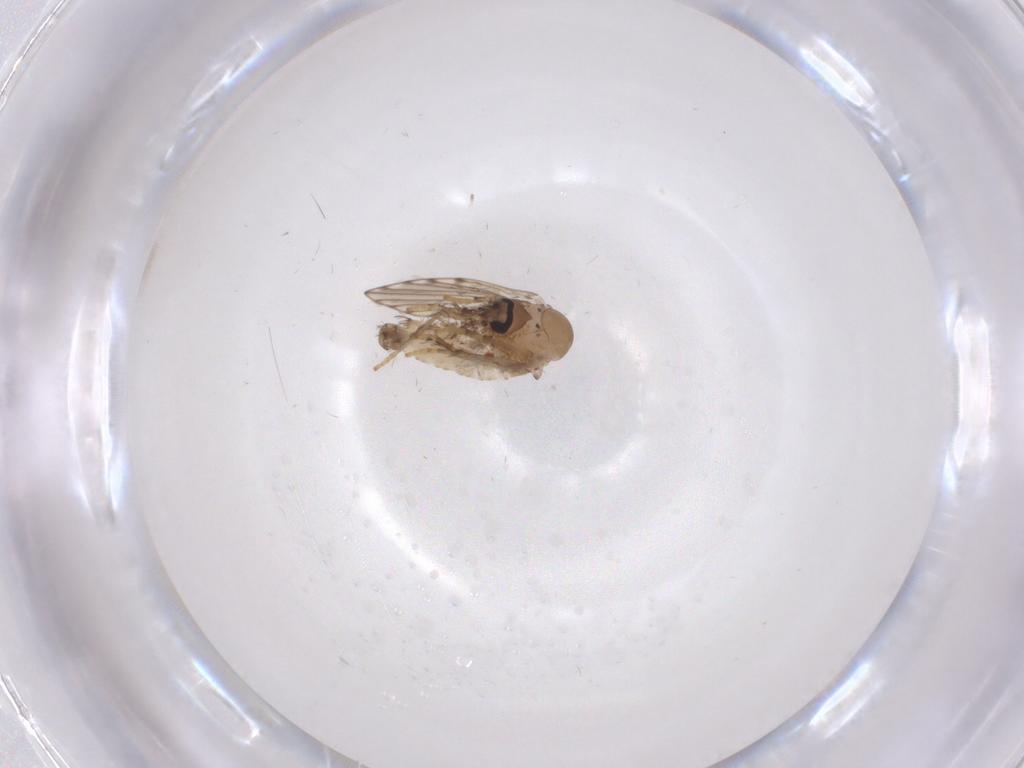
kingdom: Animalia
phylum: Arthropoda
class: Insecta
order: Diptera
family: Psychodidae
